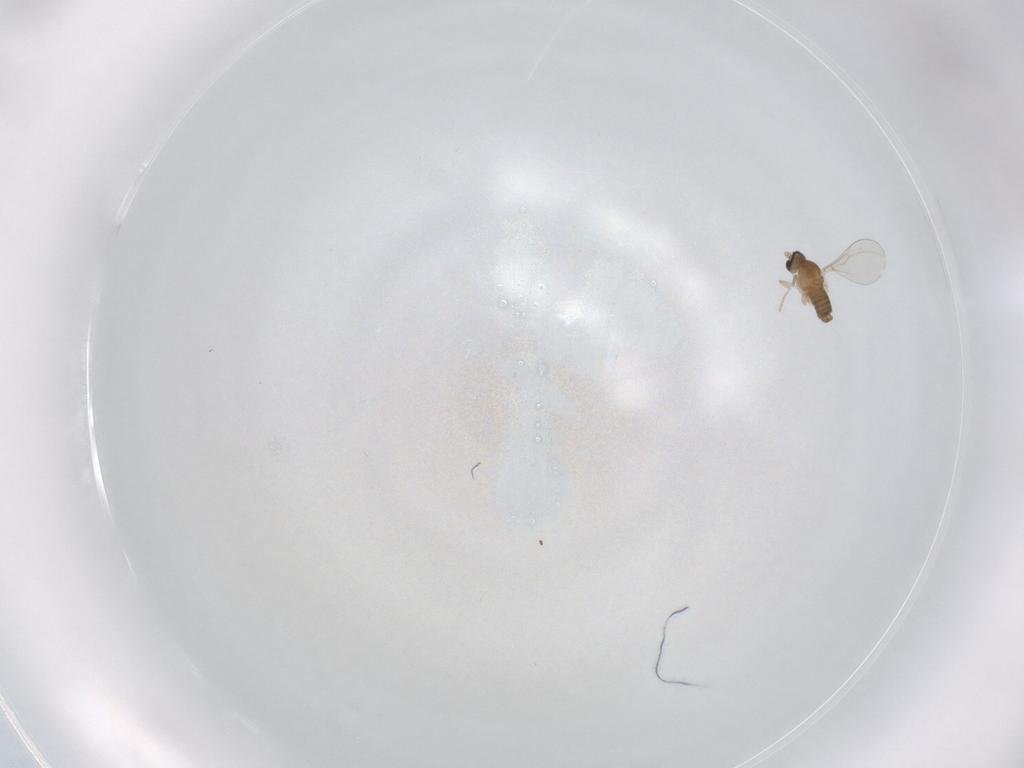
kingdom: Animalia
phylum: Arthropoda
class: Insecta
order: Diptera
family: Cecidomyiidae
